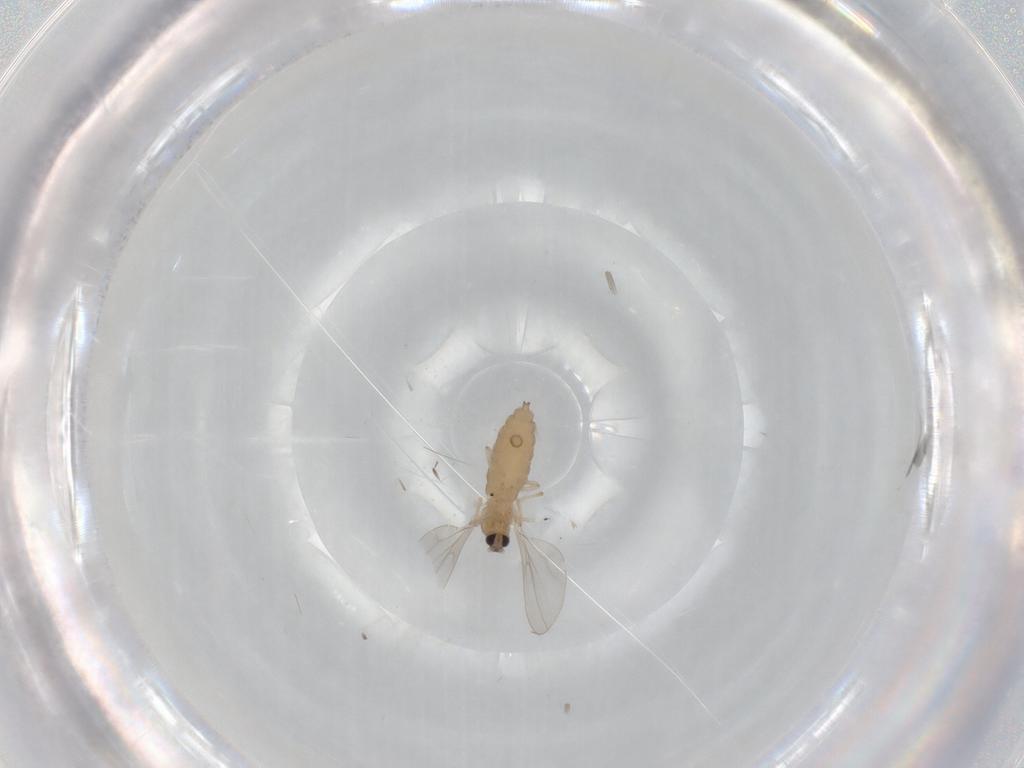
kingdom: Animalia
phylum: Arthropoda
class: Insecta
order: Diptera
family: Cecidomyiidae
